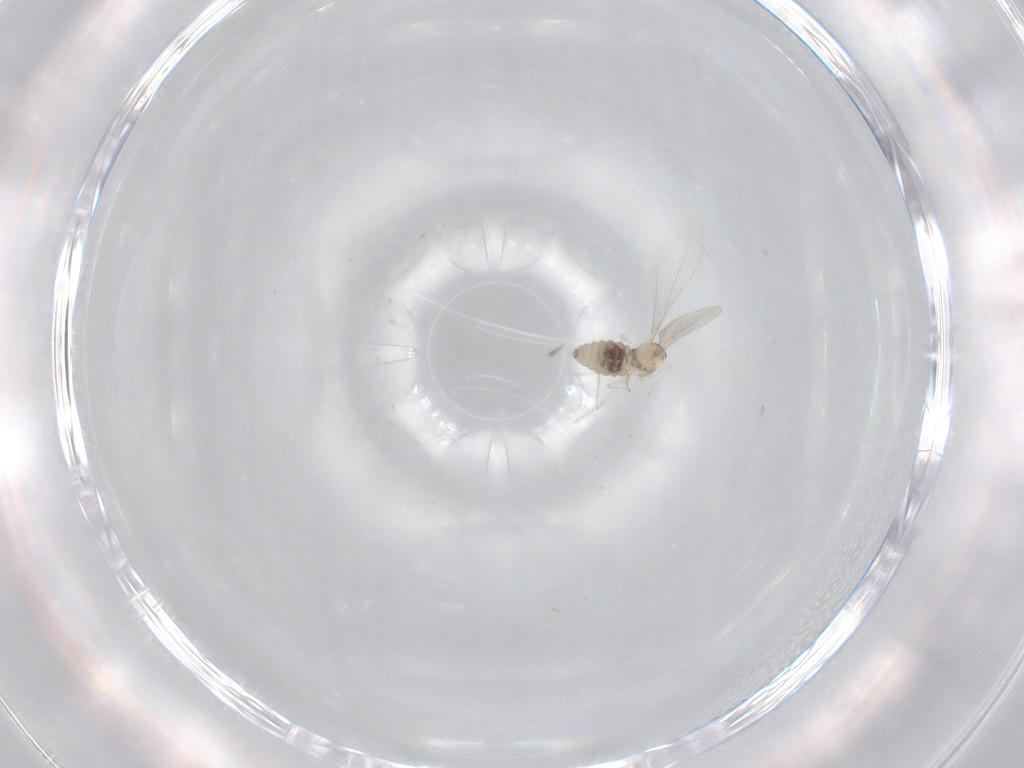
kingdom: Animalia
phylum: Arthropoda
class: Insecta
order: Diptera
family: Cecidomyiidae
